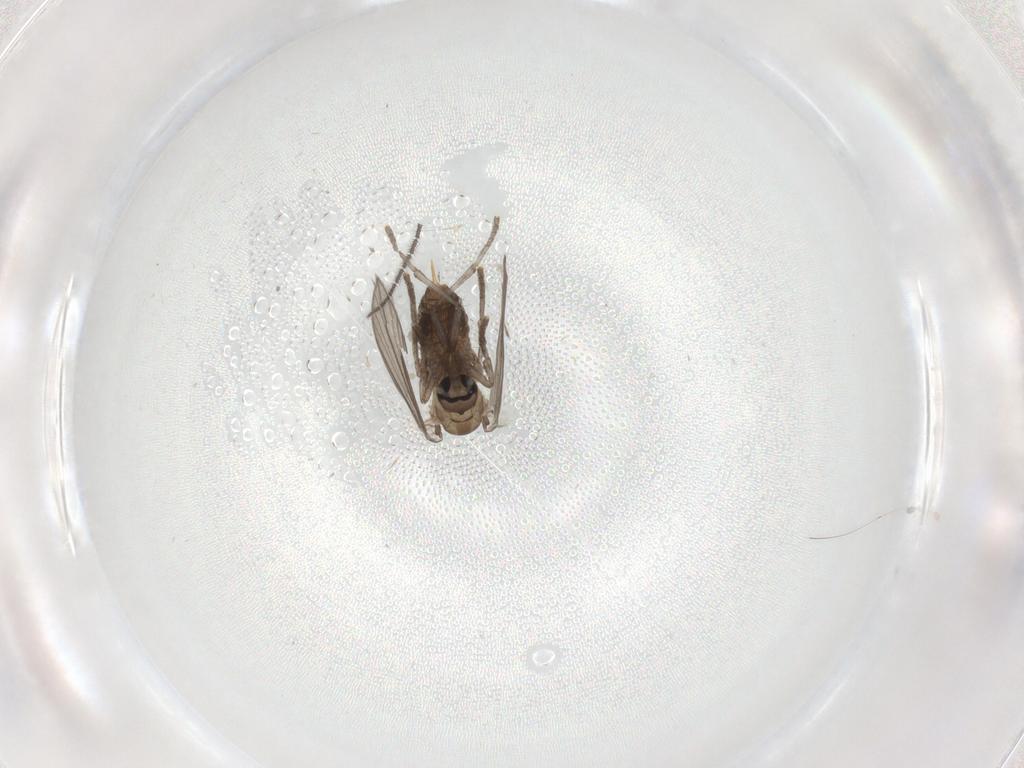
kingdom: Animalia
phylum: Arthropoda
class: Insecta
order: Diptera
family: Psychodidae
